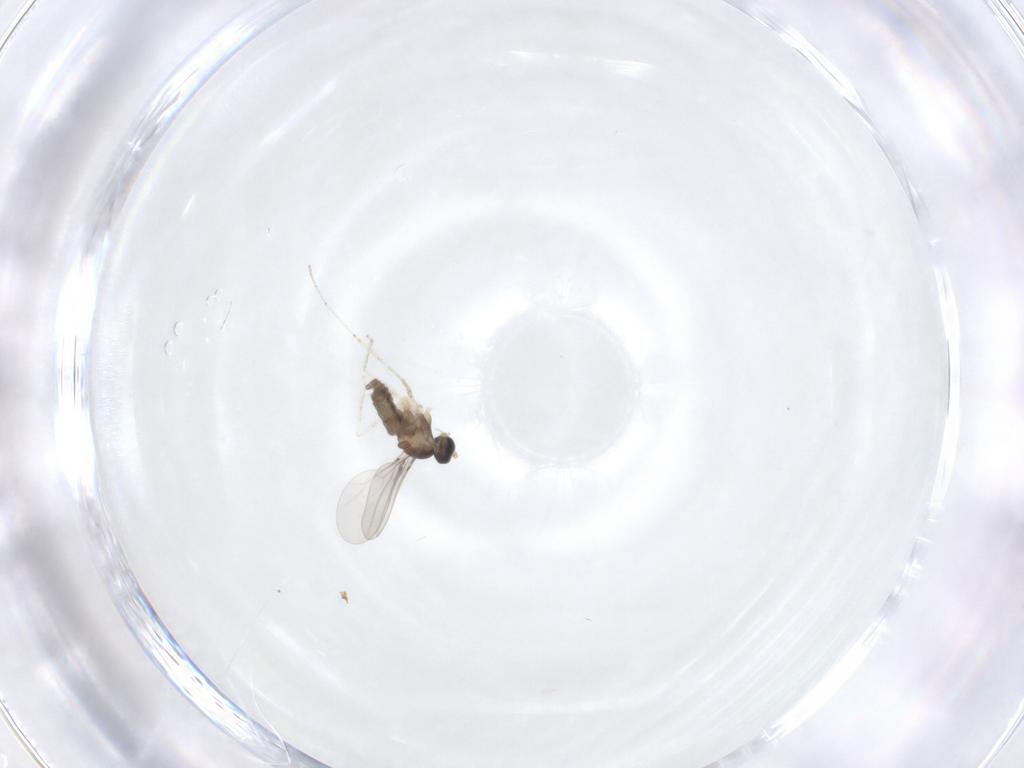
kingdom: Animalia
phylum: Arthropoda
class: Insecta
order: Diptera
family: Cecidomyiidae
